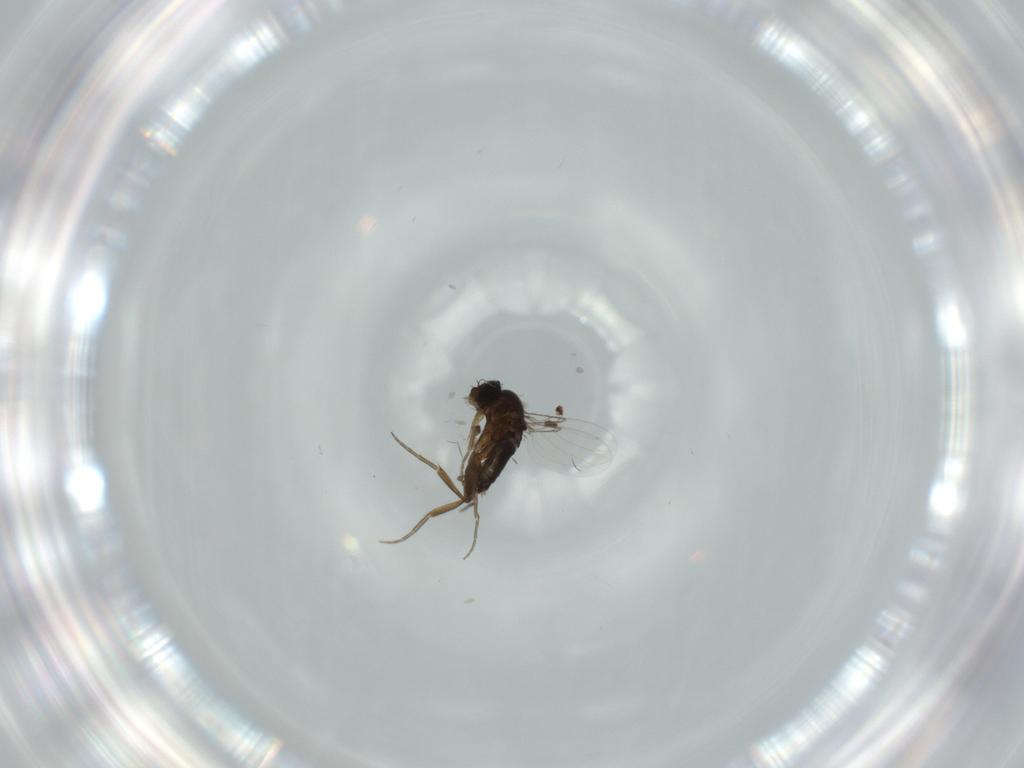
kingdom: Animalia
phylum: Arthropoda
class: Insecta
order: Diptera
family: Phoridae
